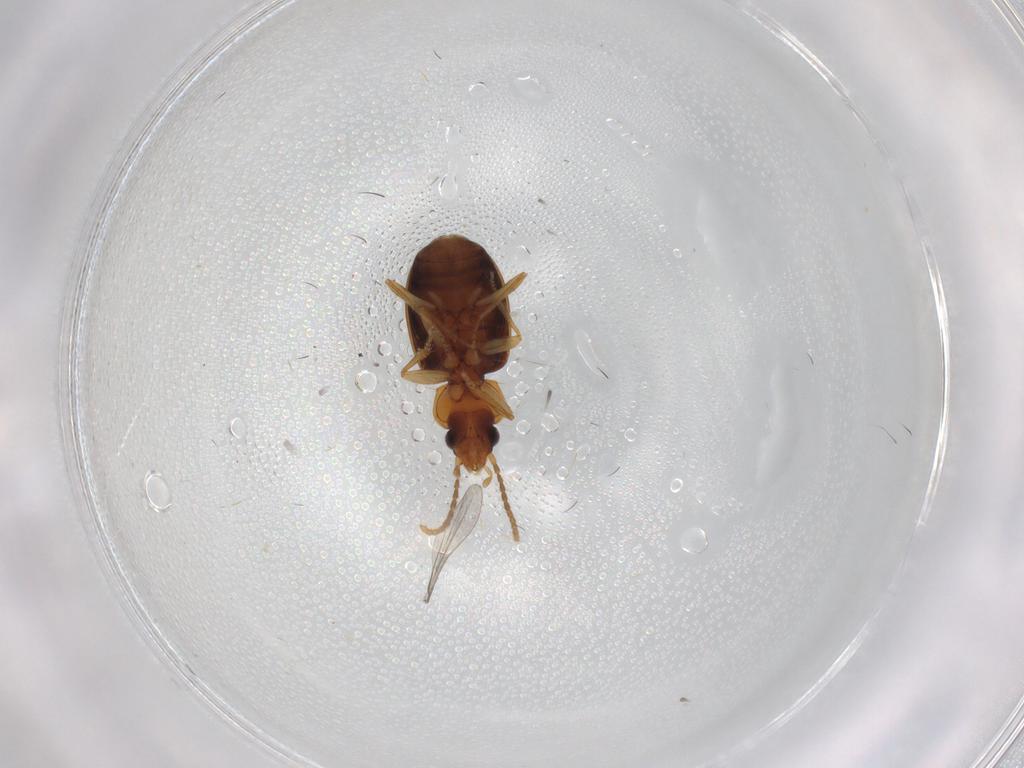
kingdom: Animalia
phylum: Arthropoda
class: Insecta
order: Coleoptera
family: Carabidae
